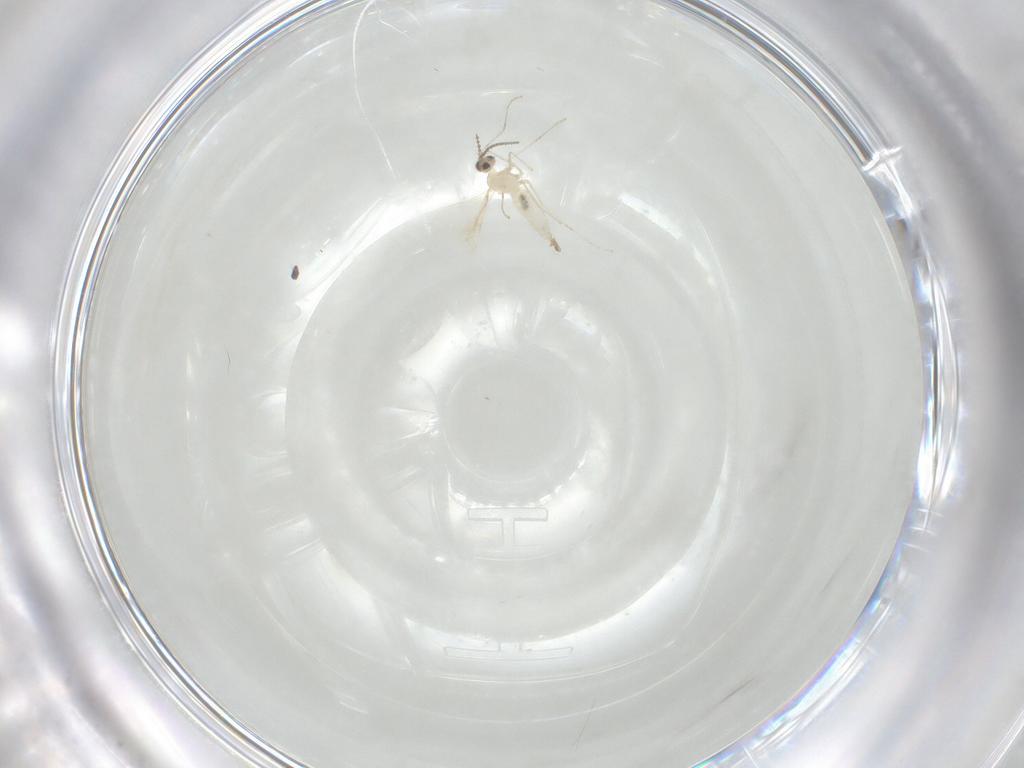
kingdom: Animalia
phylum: Arthropoda
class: Insecta
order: Diptera
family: Cecidomyiidae
